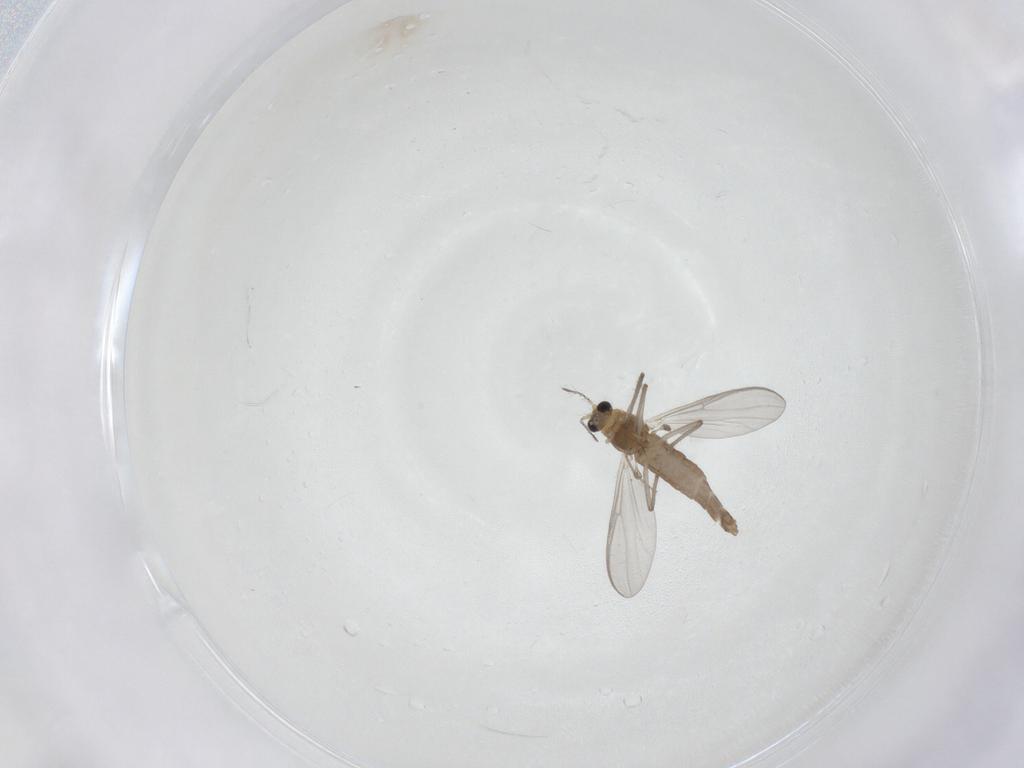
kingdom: Animalia
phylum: Arthropoda
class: Insecta
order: Diptera
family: Chironomidae
